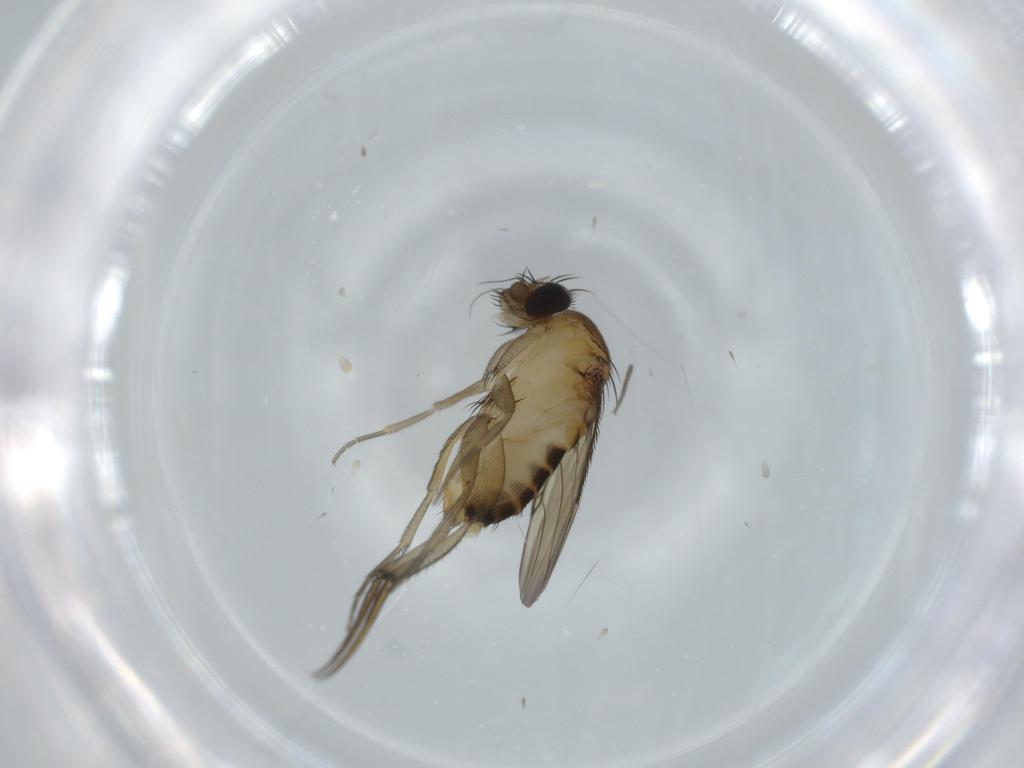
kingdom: Animalia
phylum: Arthropoda
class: Insecta
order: Diptera
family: Phoridae
